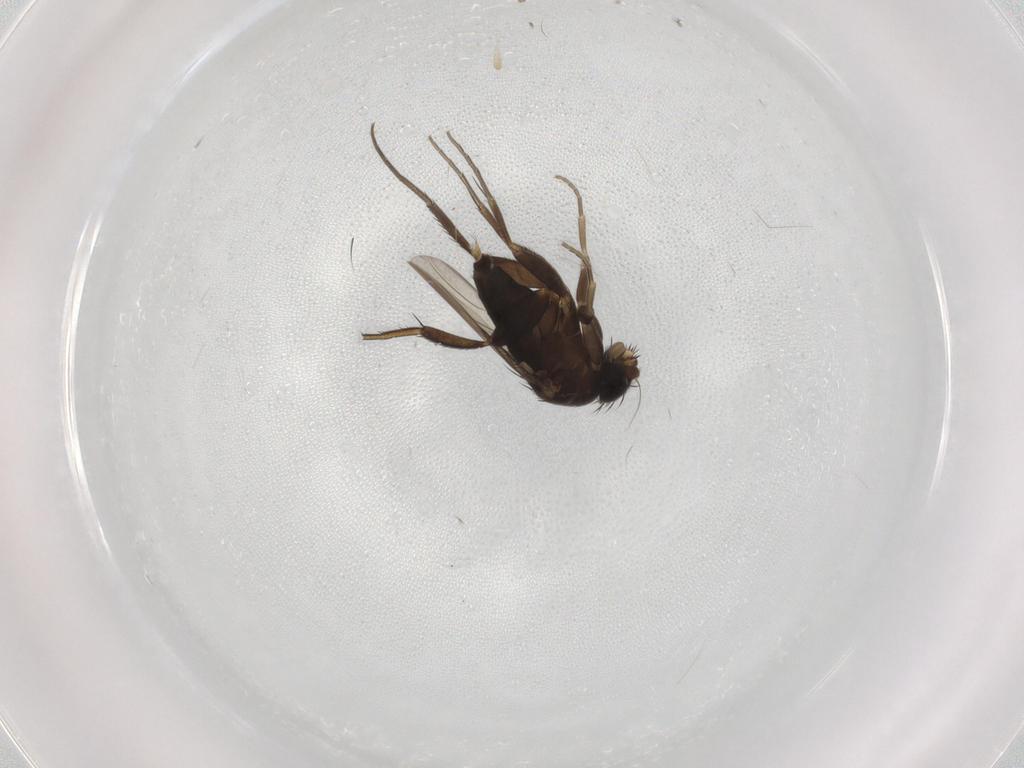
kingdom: Animalia
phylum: Arthropoda
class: Insecta
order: Diptera
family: Phoridae
